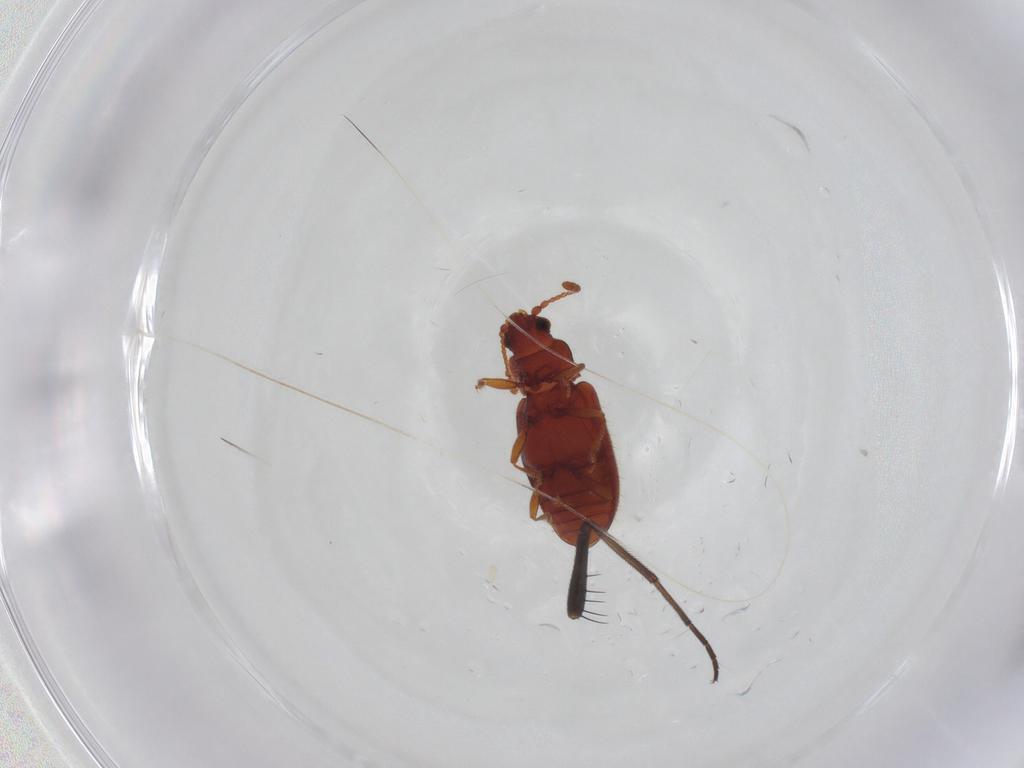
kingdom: Animalia
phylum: Arthropoda
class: Insecta
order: Coleoptera
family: Cryptophagidae
